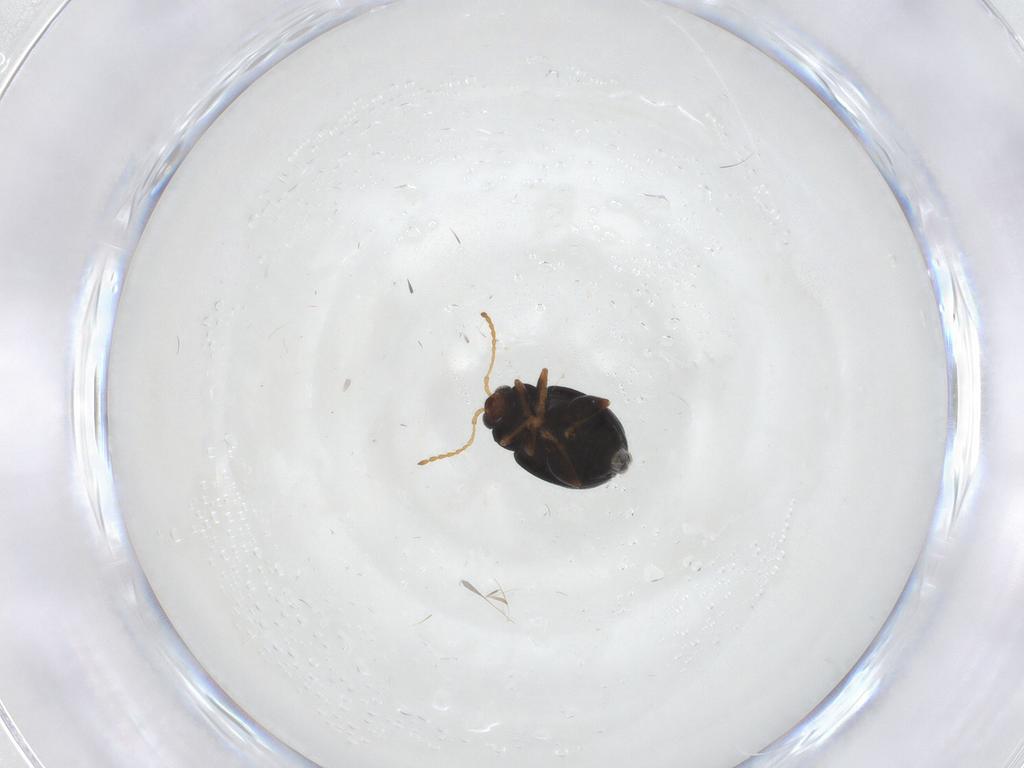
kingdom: Animalia
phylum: Arthropoda
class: Insecta
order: Coleoptera
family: Chrysomelidae
